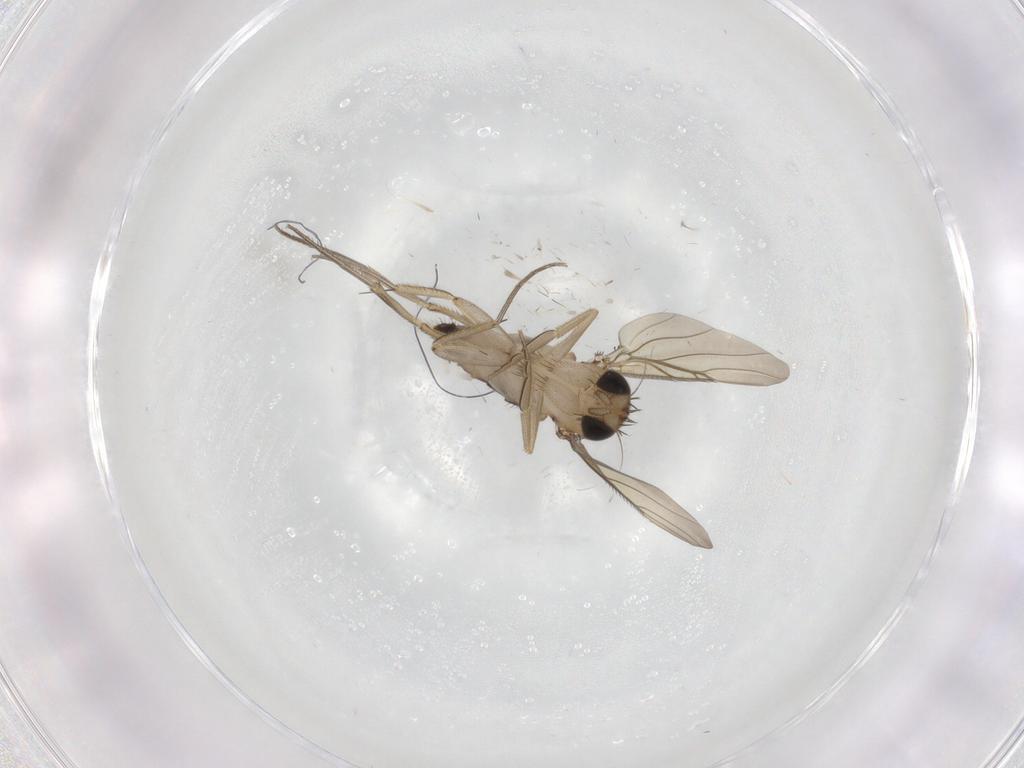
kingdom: Animalia
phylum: Arthropoda
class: Insecta
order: Diptera
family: Phoridae
